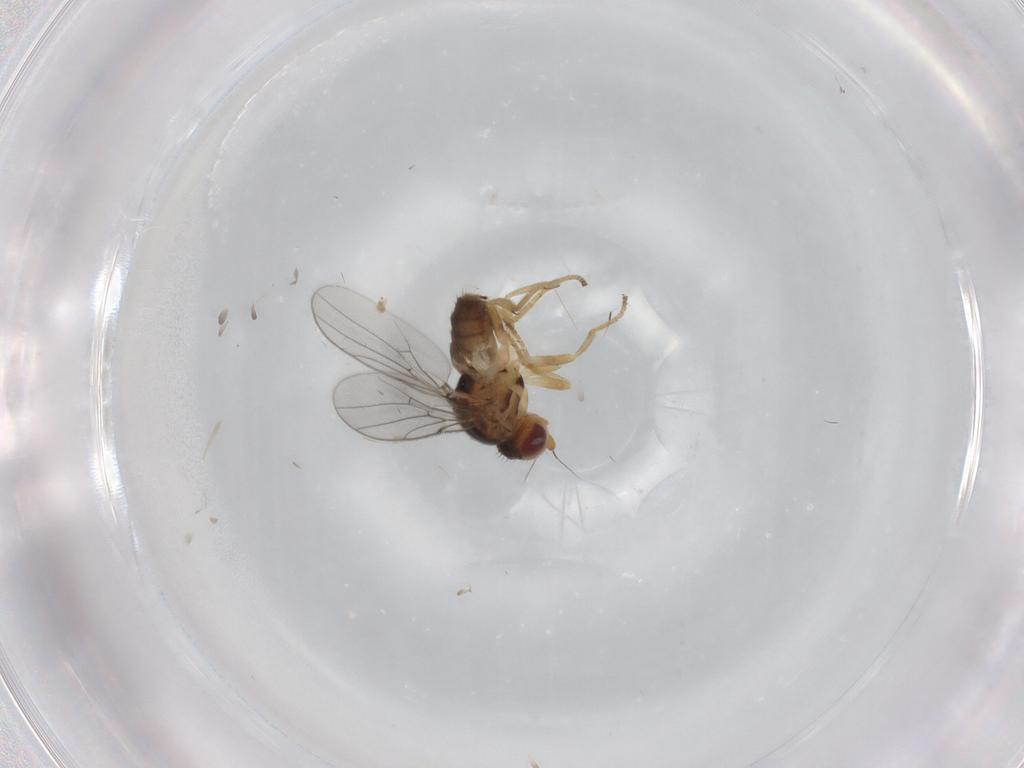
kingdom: Animalia
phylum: Arthropoda
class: Insecta
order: Diptera
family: Chloropidae
